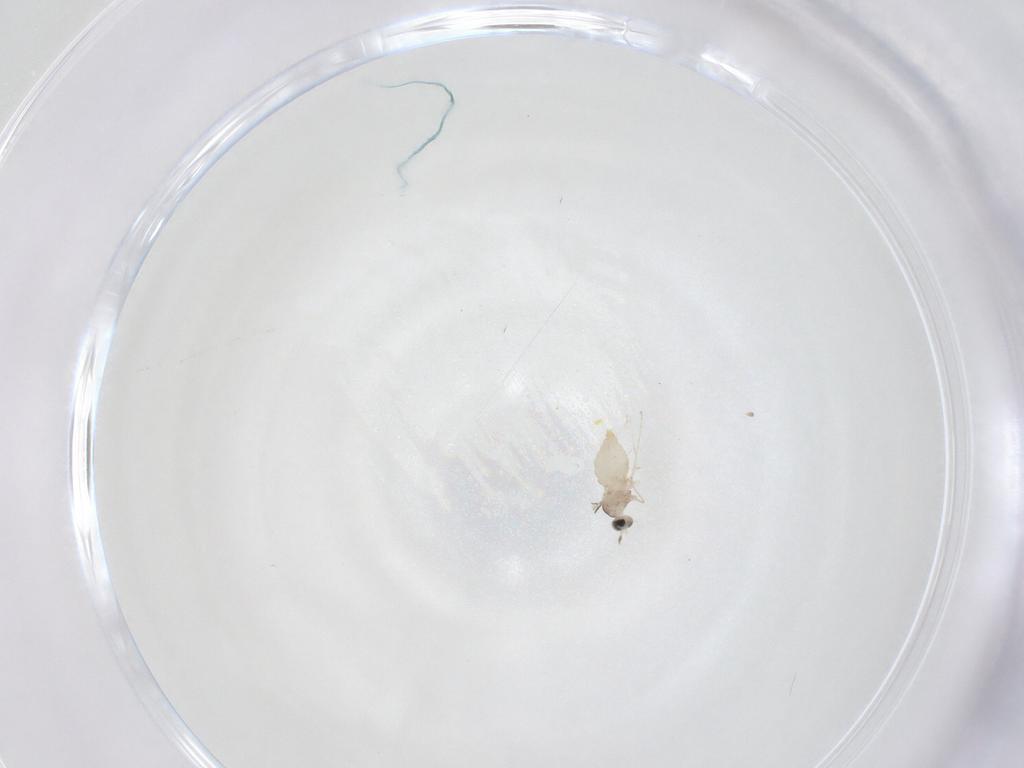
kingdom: Animalia
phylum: Arthropoda
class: Insecta
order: Diptera
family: Cecidomyiidae
